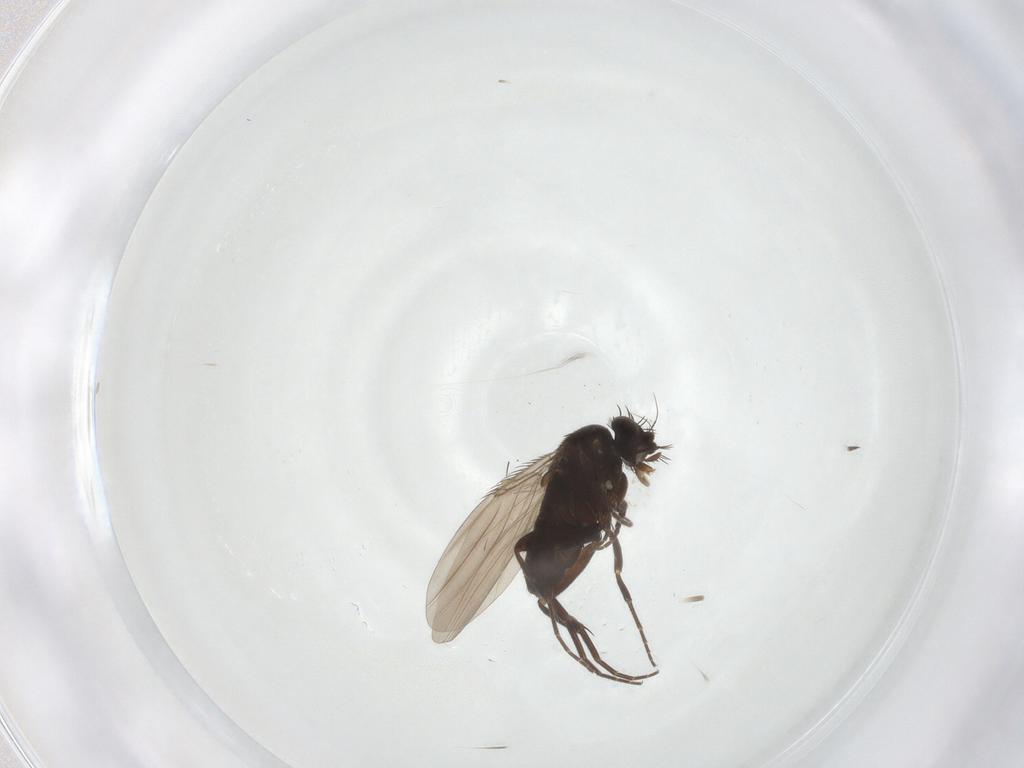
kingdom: Animalia
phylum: Arthropoda
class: Insecta
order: Diptera
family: Sciaridae
